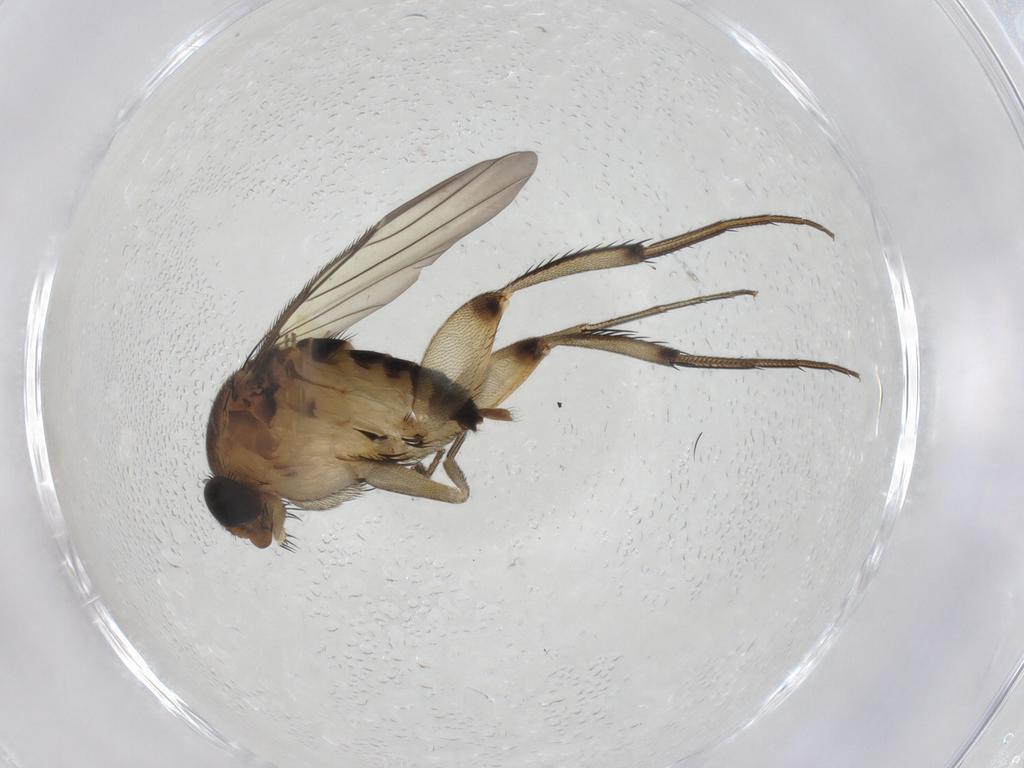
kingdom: Animalia
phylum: Arthropoda
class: Insecta
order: Diptera
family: Phoridae
